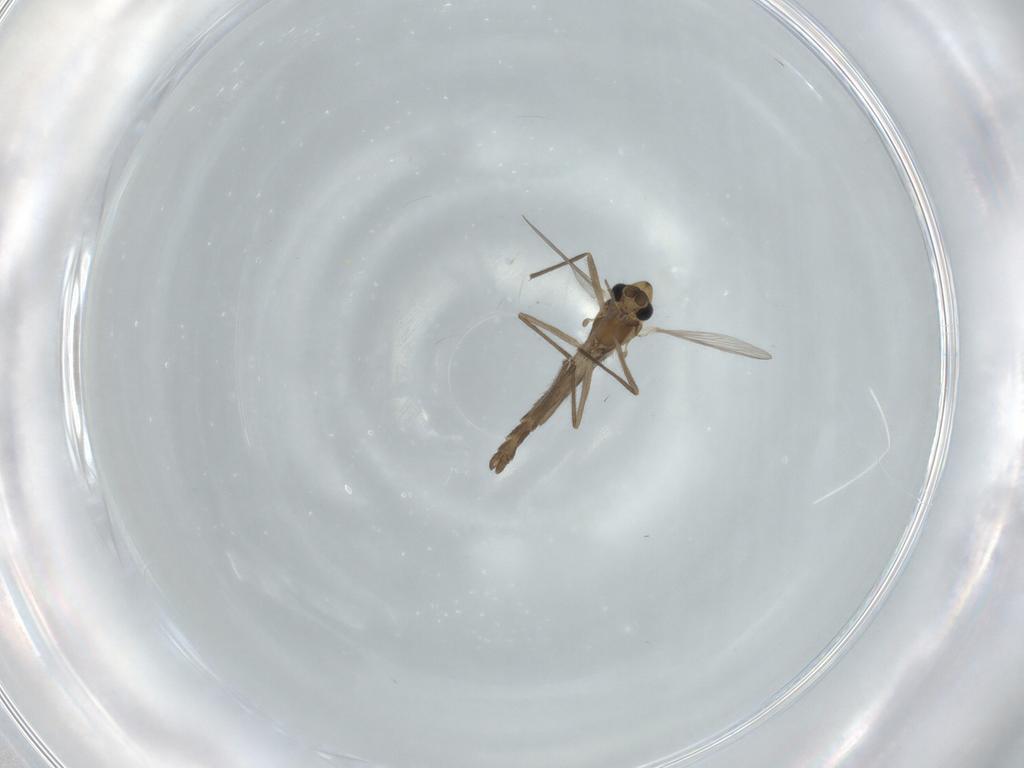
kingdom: Animalia
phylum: Arthropoda
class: Insecta
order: Diptera
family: Chironomidae
